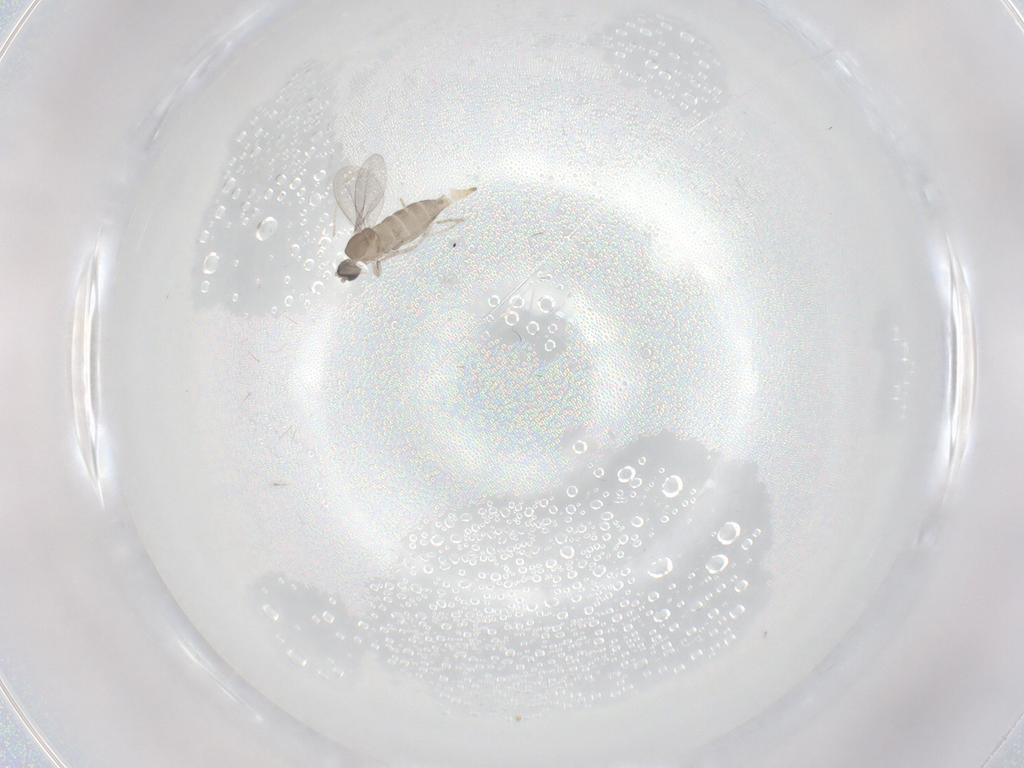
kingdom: Animalia
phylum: Arthropoda
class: Insecta
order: Diptera
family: Cecidomyiidae
